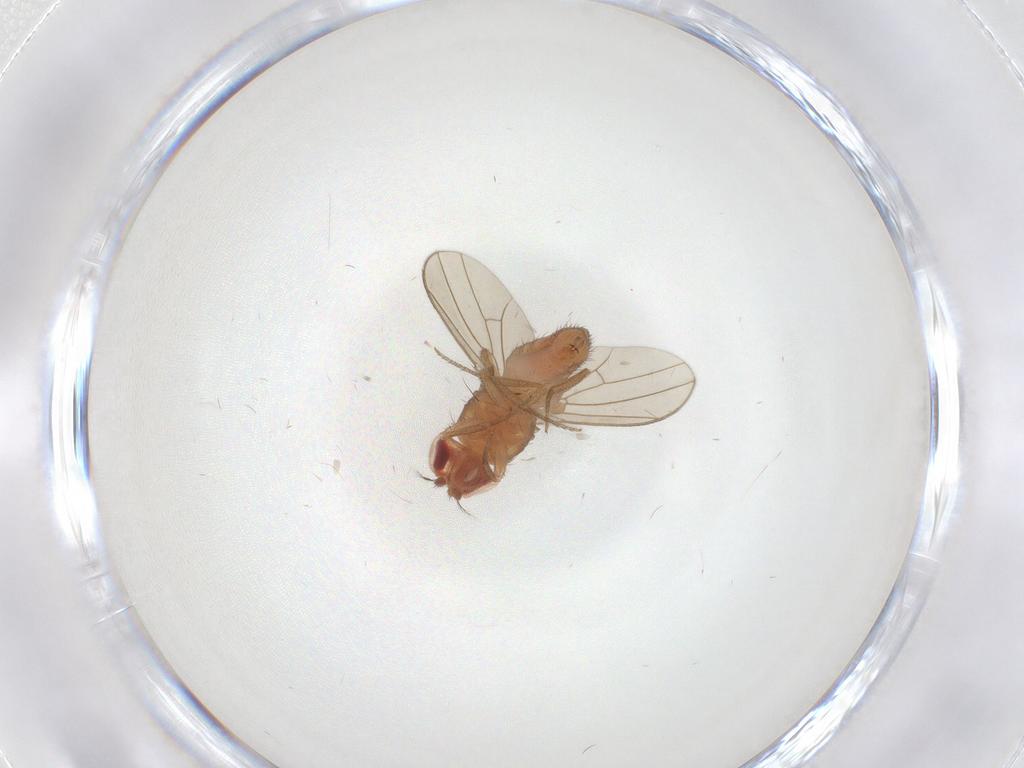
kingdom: Animalia
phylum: Arthropoda
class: Insecta
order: Diptera
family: Drosophilidae
